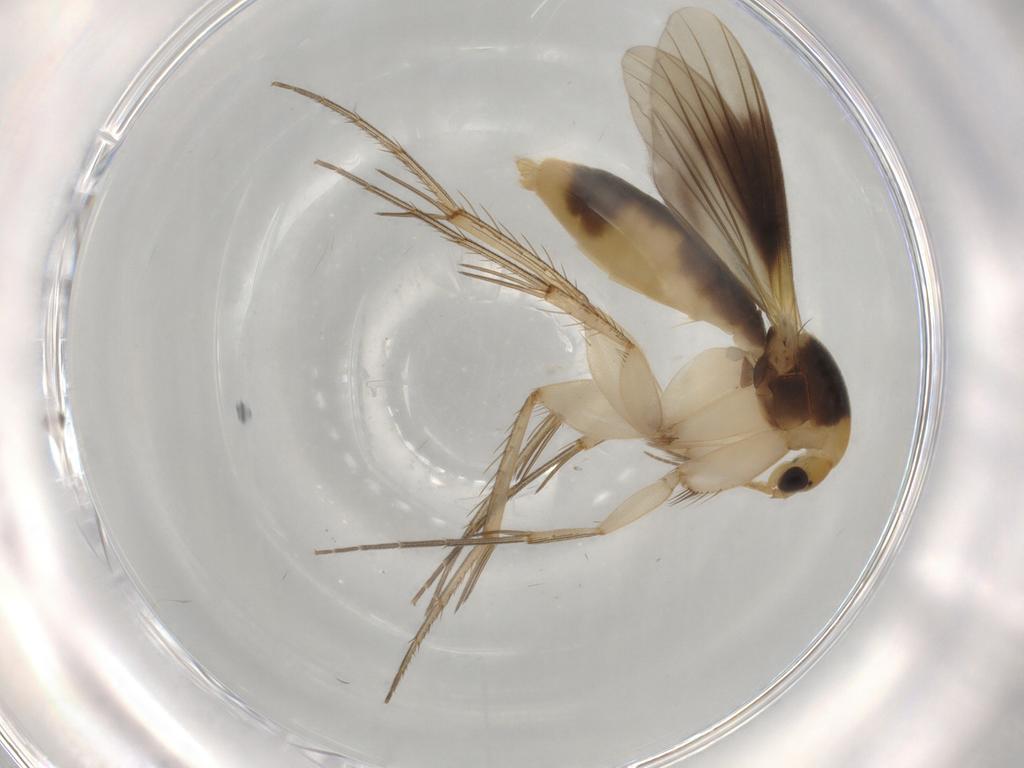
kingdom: Animalia
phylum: Arthropoda
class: Insecta
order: Diptera
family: Mycetophilidae
